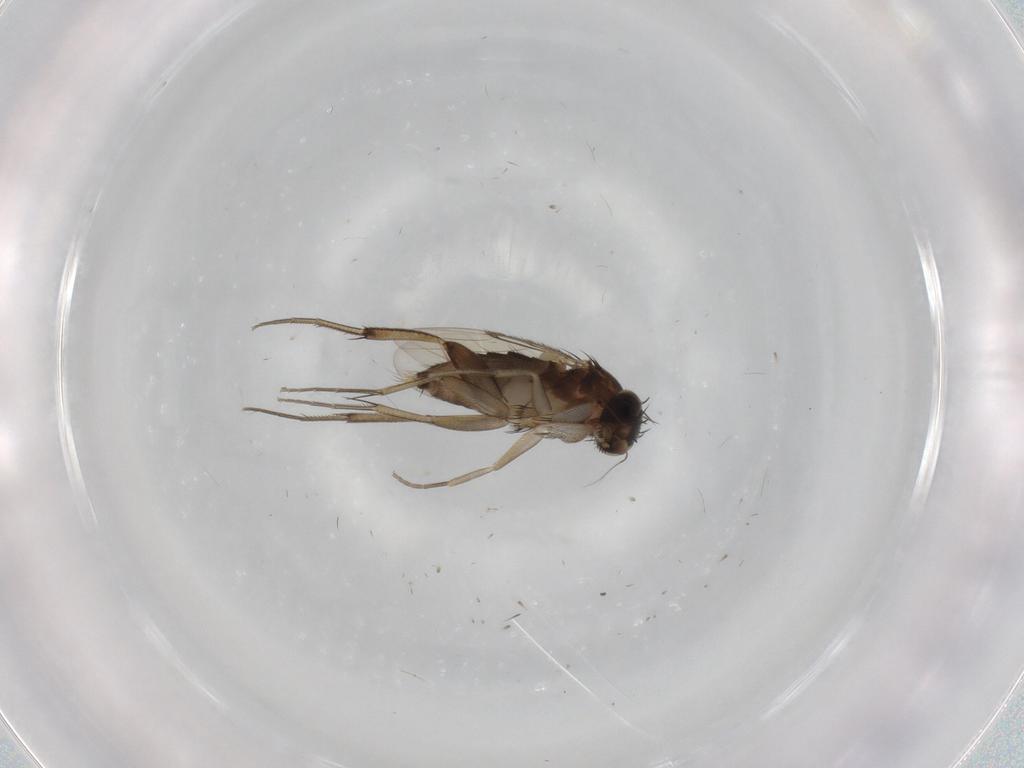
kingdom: Animalia
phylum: Arthropoda
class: Insecta
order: Diptera
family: Phoridae
